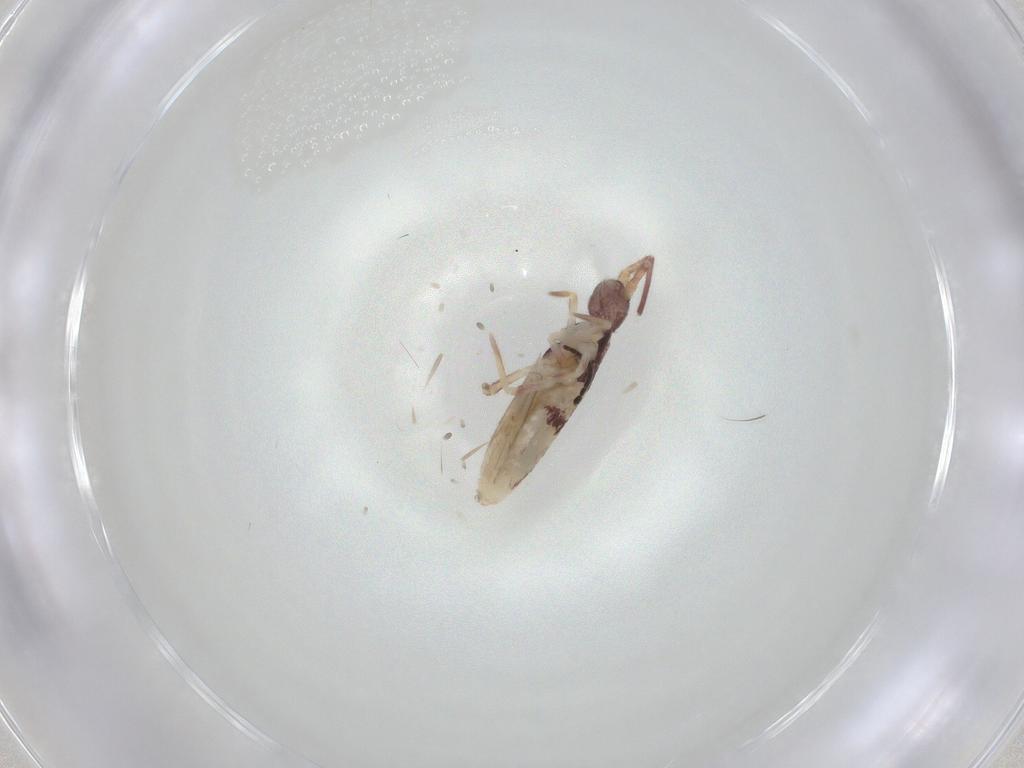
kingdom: Animalia
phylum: Arthropoda
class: Collembola
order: Entomobryomorpha
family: Entomobryidae
